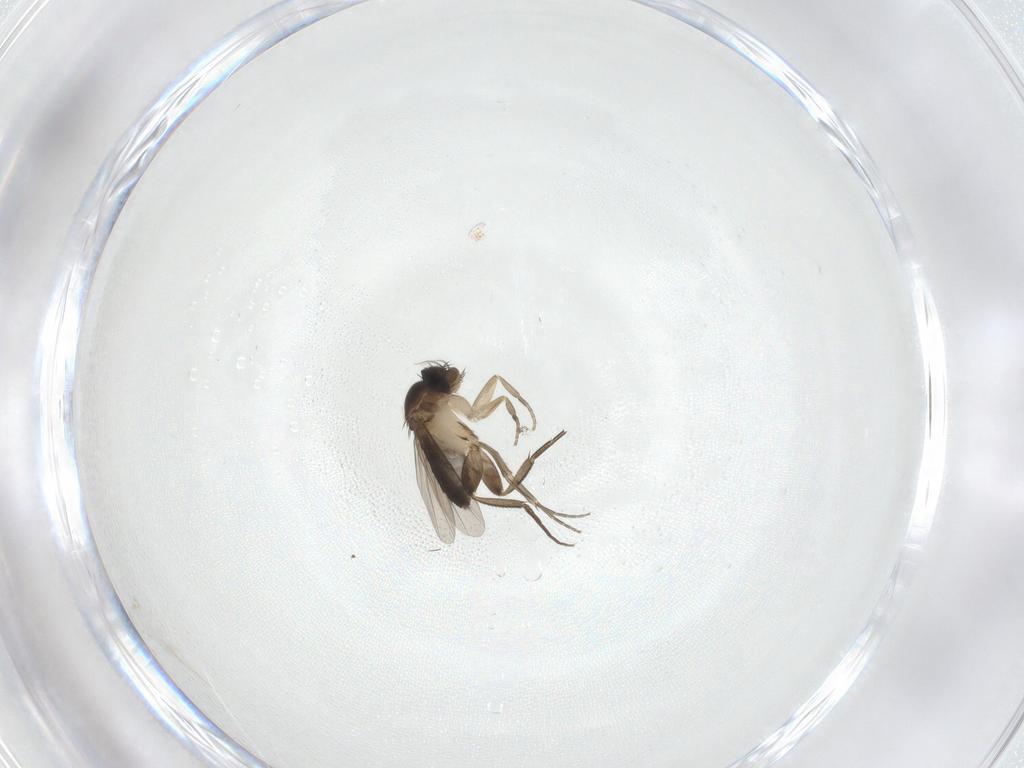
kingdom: Animalia
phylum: Arthropoda
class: Insecta
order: Diptera
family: Phoridae
